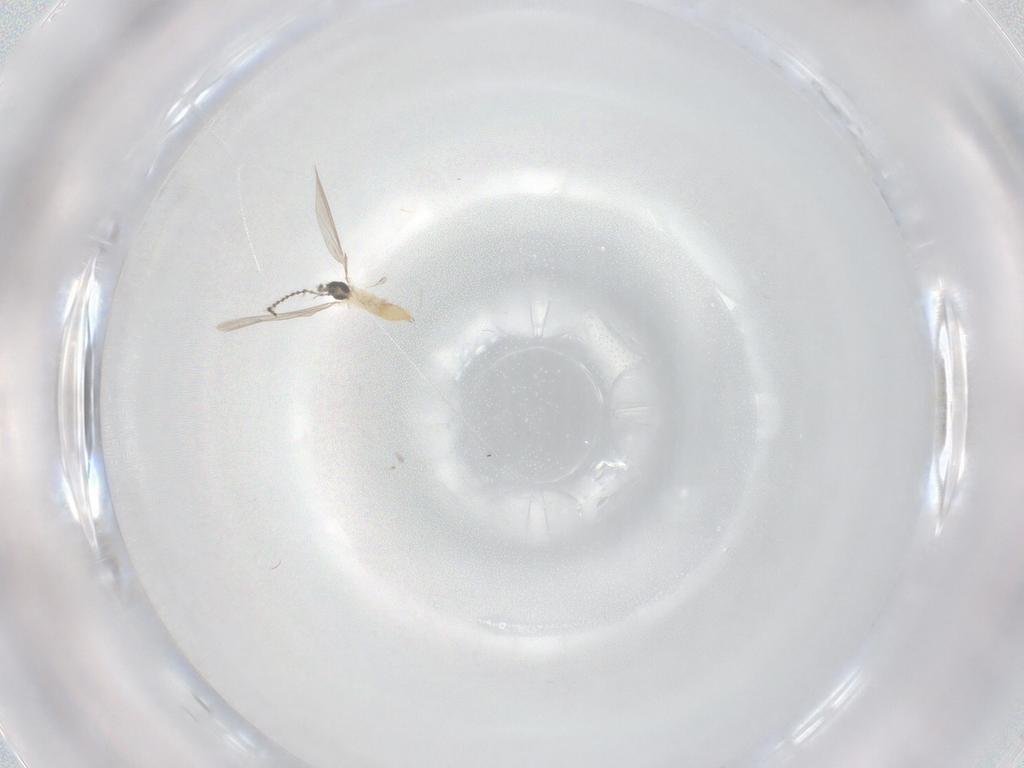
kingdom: Animalia
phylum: Arthropoda
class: Insecta
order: Diptera
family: Cecidomyiidae
